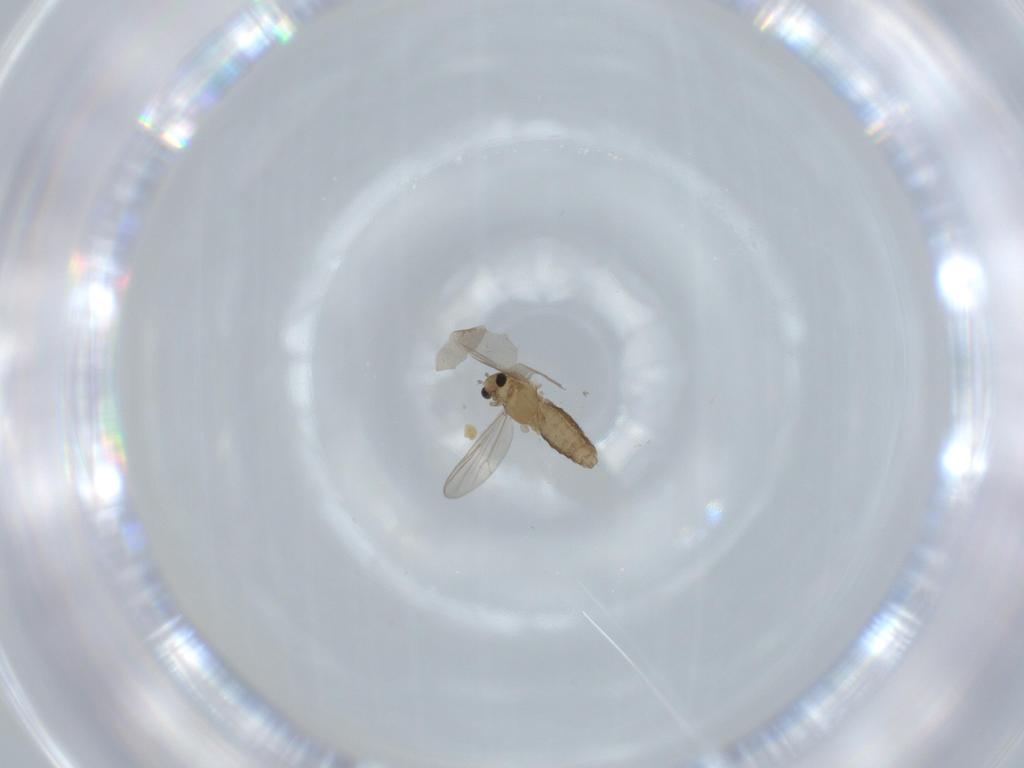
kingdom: Animalia
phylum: Arthropoda
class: Insecta
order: Diptera
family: Chironomidae
